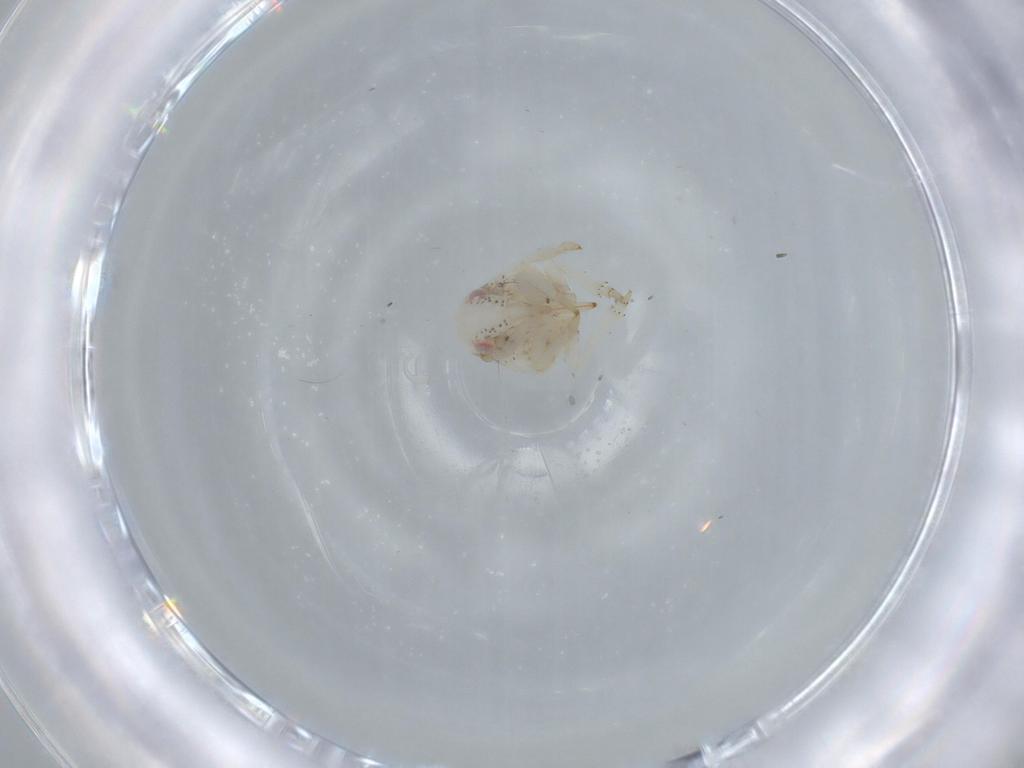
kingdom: Animalia
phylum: Arthropoda
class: Insecta
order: Hemiptera
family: Acanaloniidae
